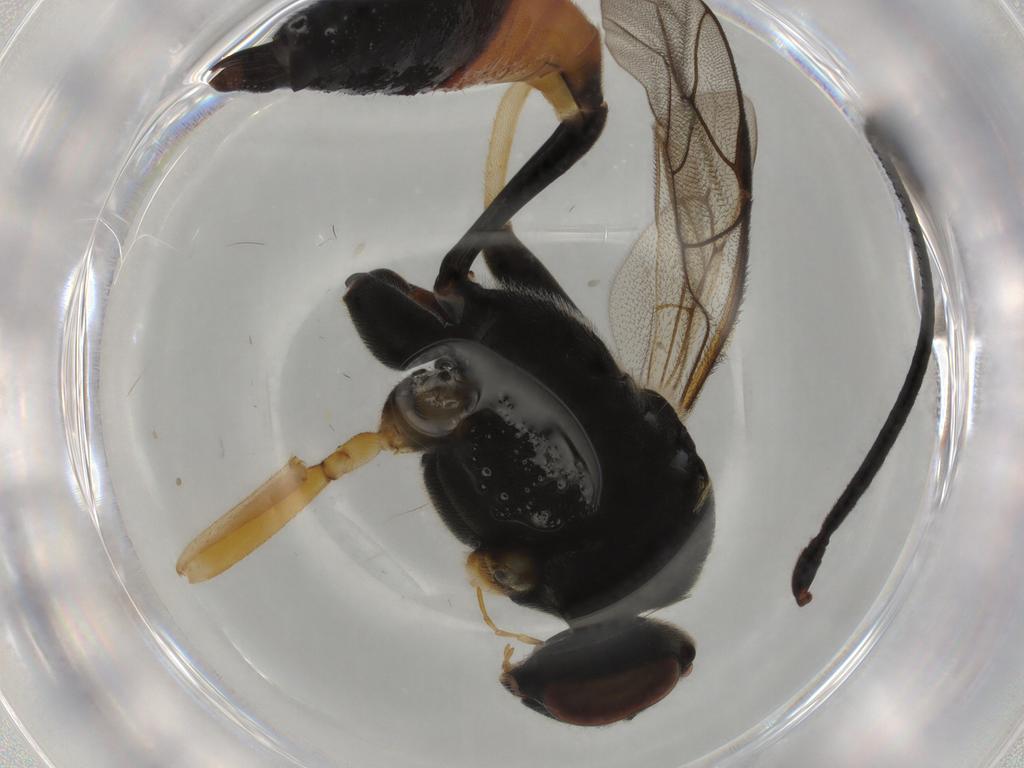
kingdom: Animalia
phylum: Arthropoda
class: Insecta
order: Hymenoptera
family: Ichneumonidae
